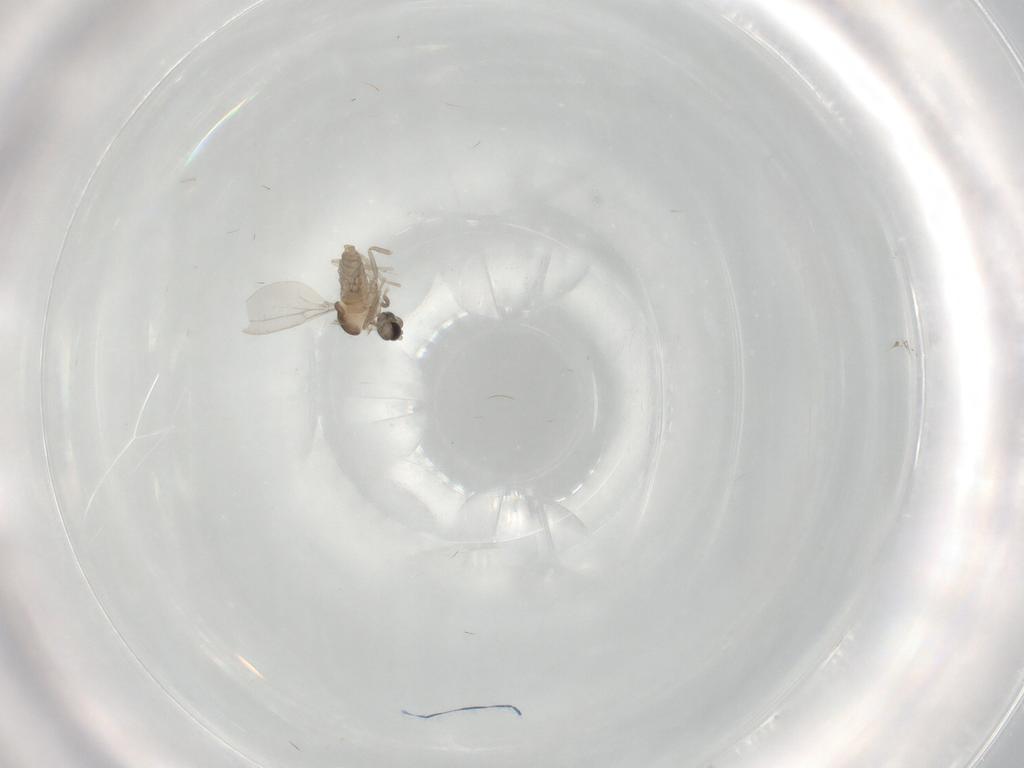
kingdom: Animalia
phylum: Arthropoda
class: Insecta
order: Diptera
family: Cecidomyiidae
